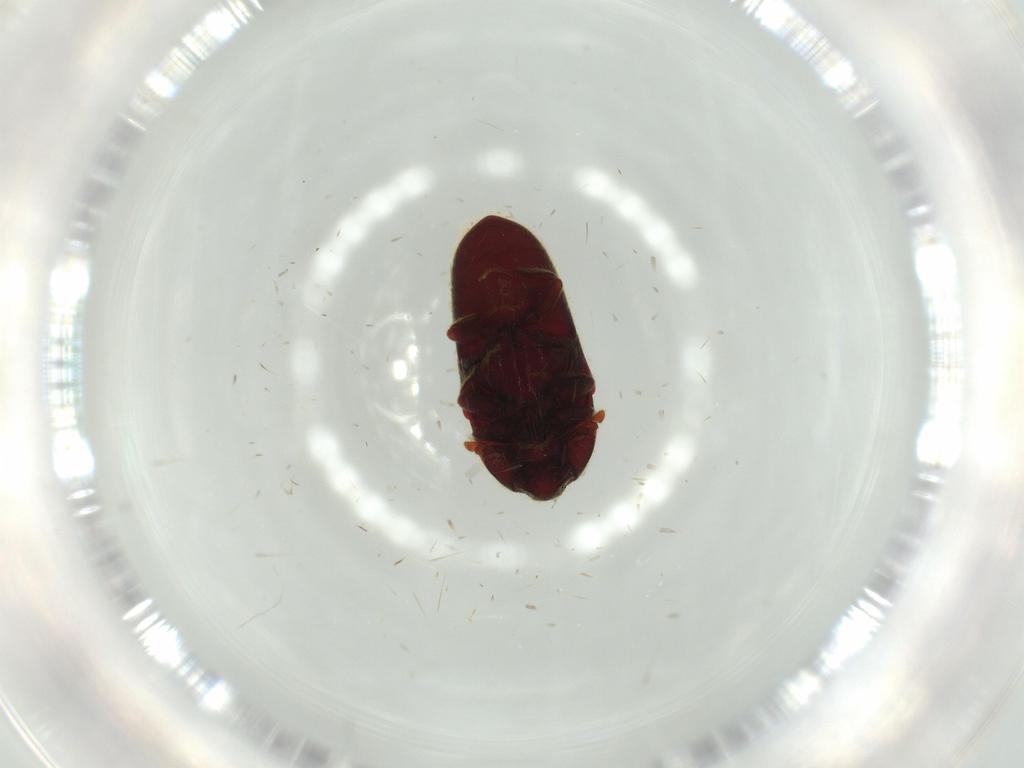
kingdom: Animalia
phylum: Arthropoda
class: Insecta
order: Coleoptera
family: Throscidae
